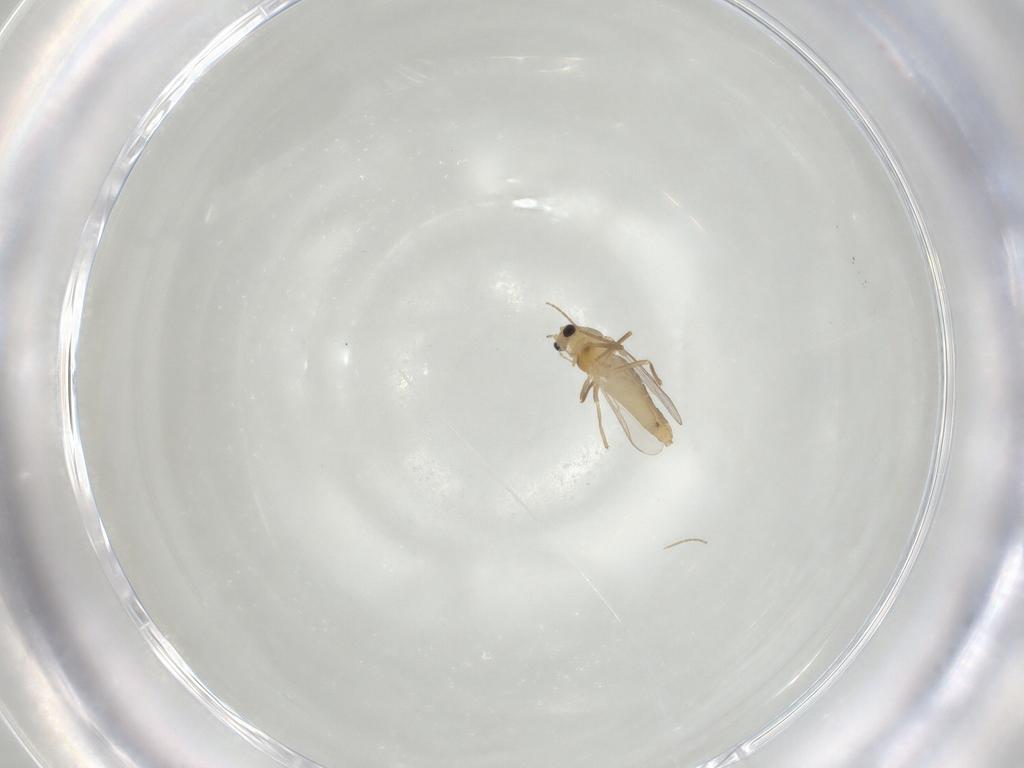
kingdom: Animalia
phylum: Arthropoda
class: Insecta
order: Diptera
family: Chironomidae
